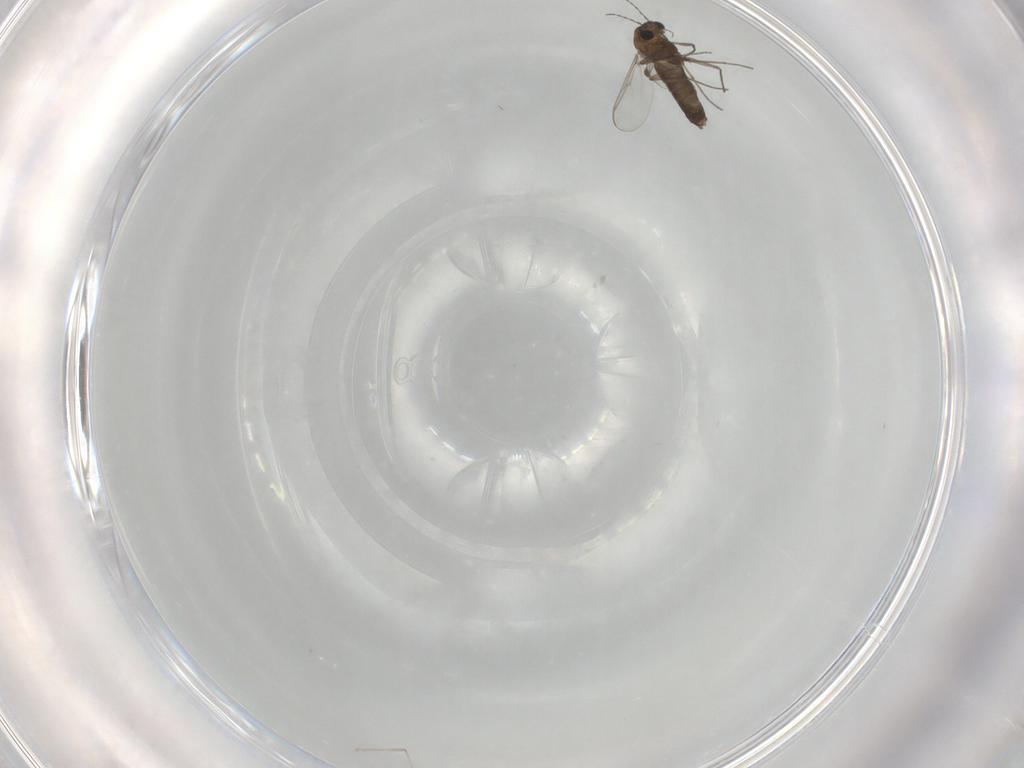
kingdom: Animalia
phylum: Arthropoda
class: Insecta
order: Diptera
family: Chironomidae
